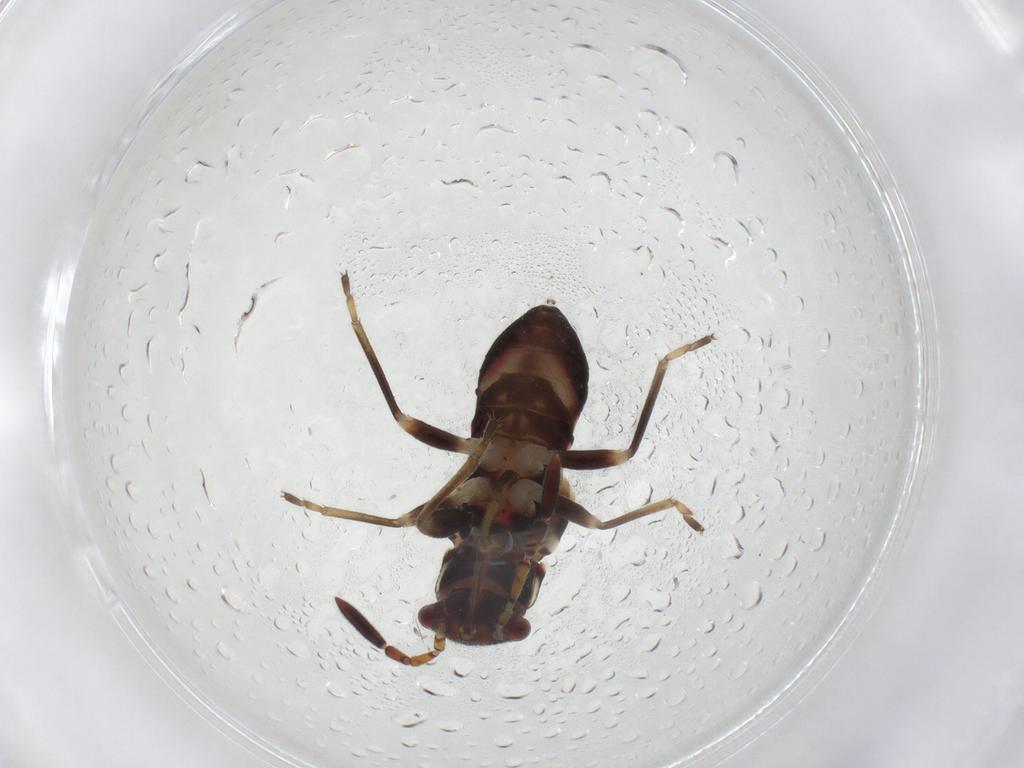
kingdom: Animalia
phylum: Arthropoda
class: Insecta
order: Hemiptera
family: Rhyparochromidae
